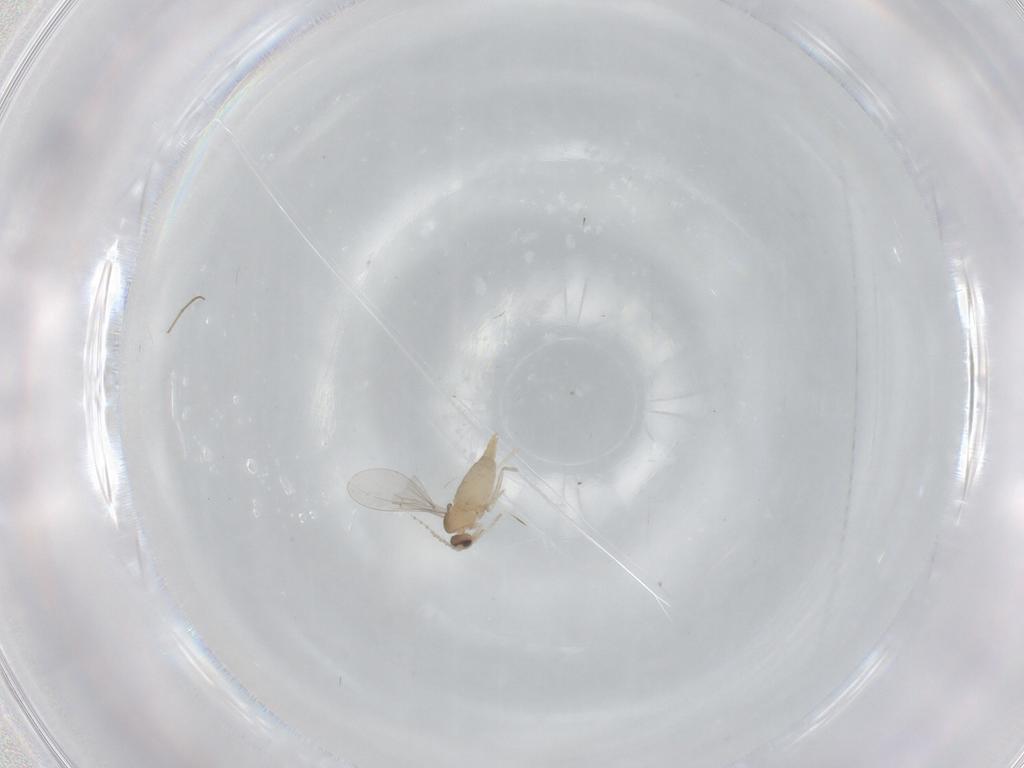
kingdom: Animalia
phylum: Arthropoda
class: Insecta
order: Diptera
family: Cecidomyiidae
